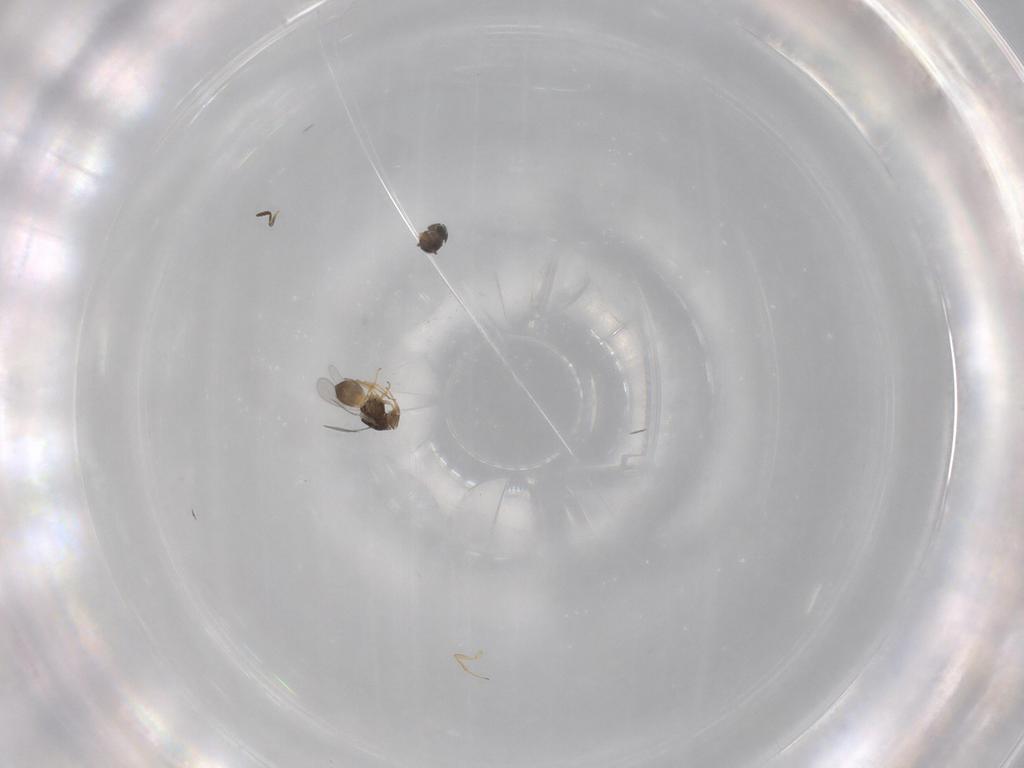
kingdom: Animalia
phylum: Arthropoda
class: Insecta
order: Hymenoptera
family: Scelionidae
